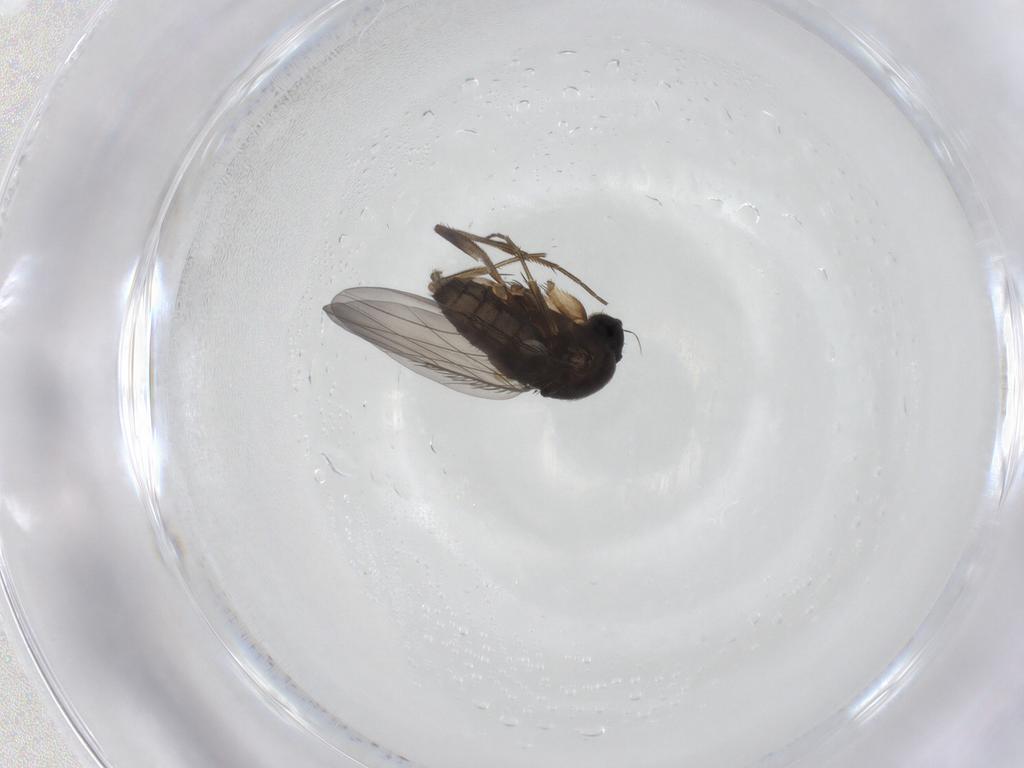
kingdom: Animalia
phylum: Arthropoda
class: Insecta
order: Diptera
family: Phoridae
